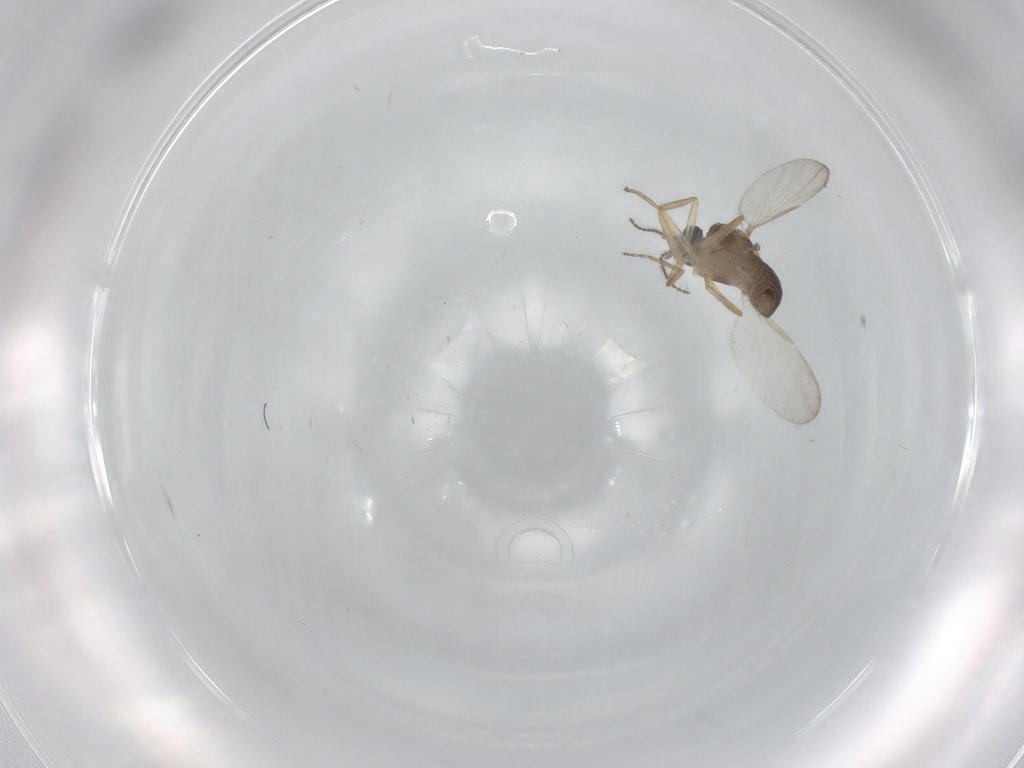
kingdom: Animalia
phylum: Arthropoda
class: Insecta
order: Diptera
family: Ceratopogonidae
